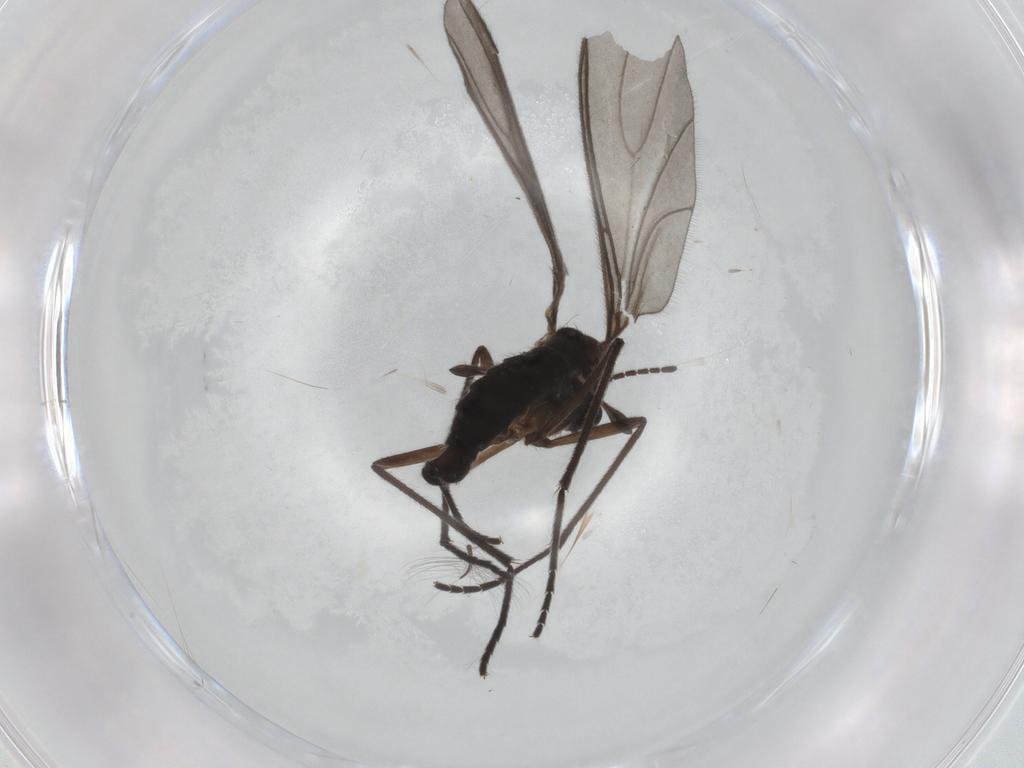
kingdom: Animalia
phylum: Arthropoda
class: Insecta
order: Diptera
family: Sciaridae
